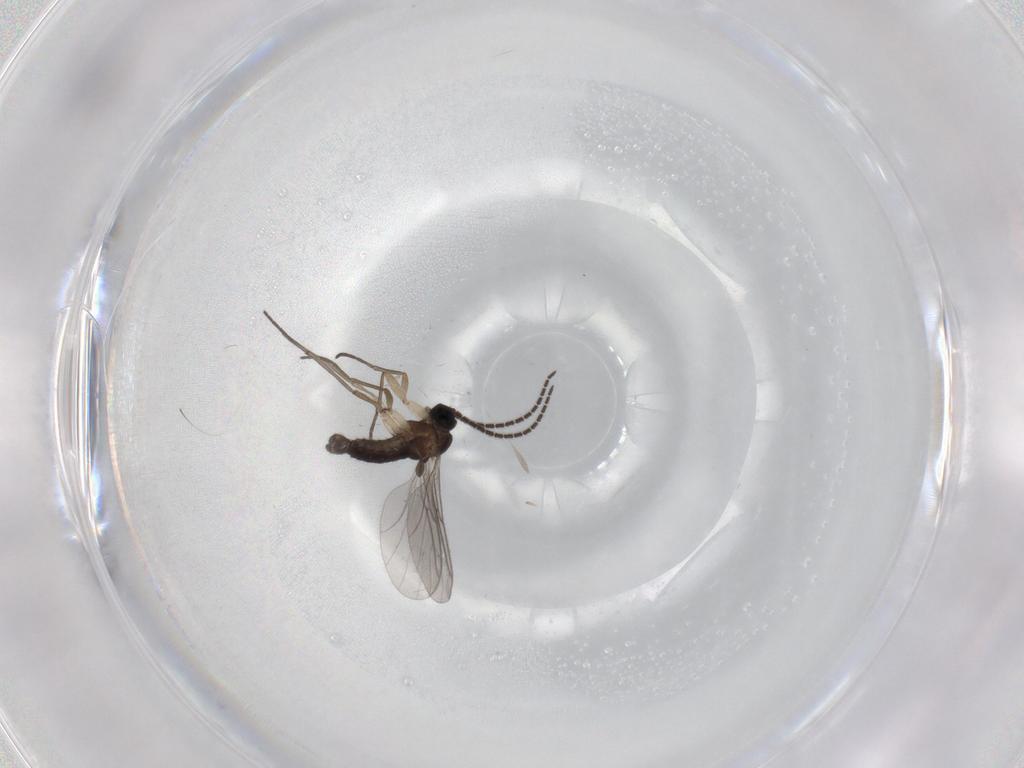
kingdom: Animalia
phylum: Arthropoda
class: Insecta
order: Diptera
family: Sciaridae
